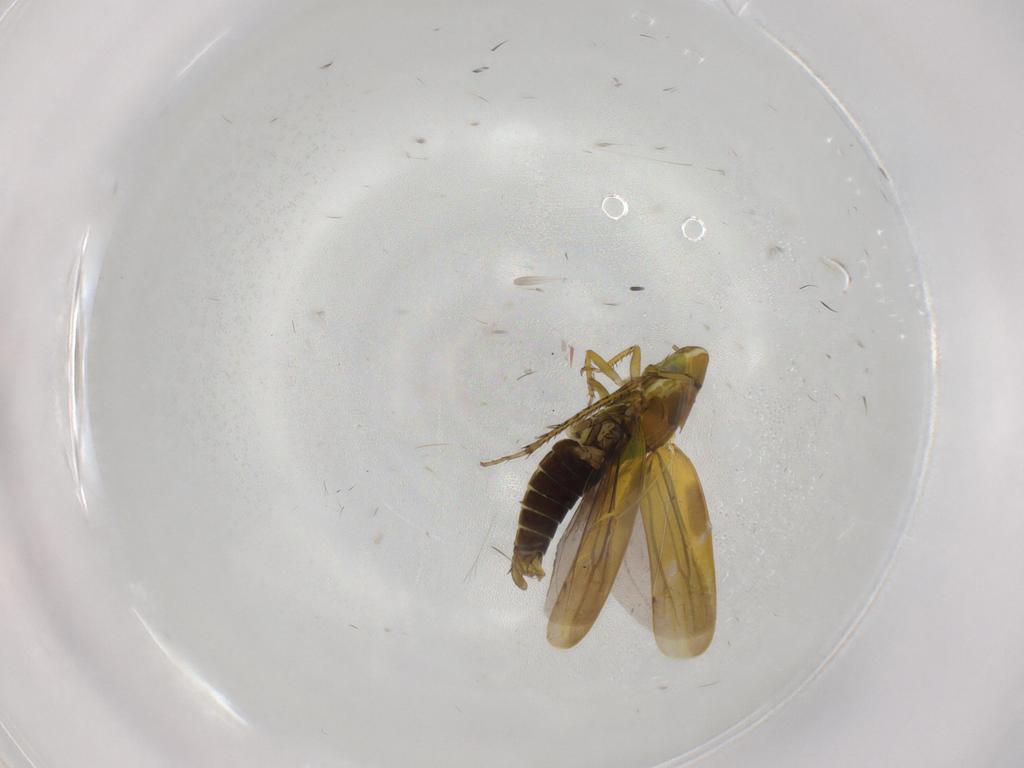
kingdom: Animalia
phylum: Arthropoda
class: Insecta
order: Hemiptera
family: Cicadellidae
